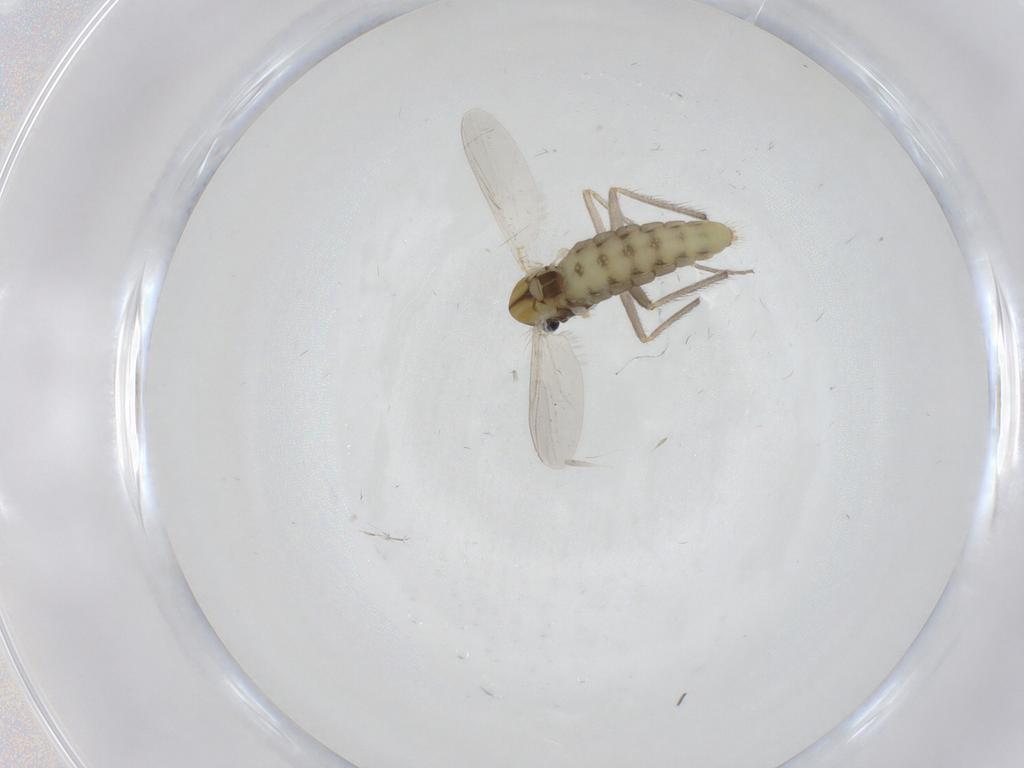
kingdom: Animalia
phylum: Arthropoda
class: Insecta
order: Diptera
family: Chironomidae
